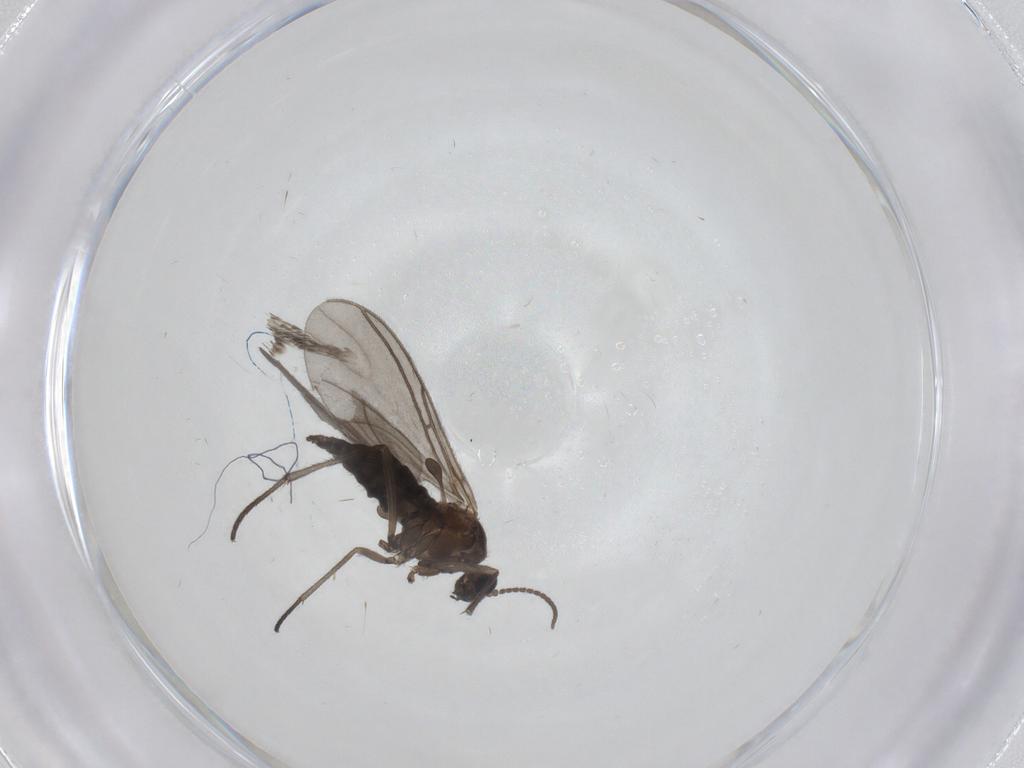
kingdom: Animalia
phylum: Arthropoda
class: Insecta
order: Diptera
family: Sciaridae
